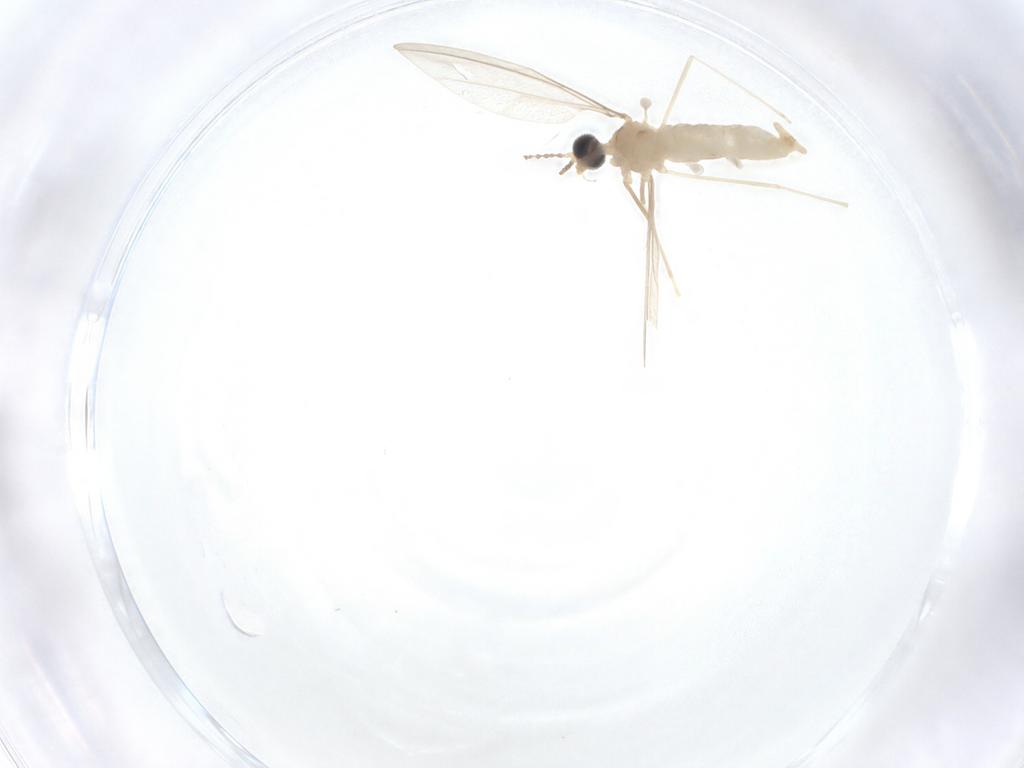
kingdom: Animalia
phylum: Arthropoda
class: Insecta
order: Diptera
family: Cecidomyiidae
